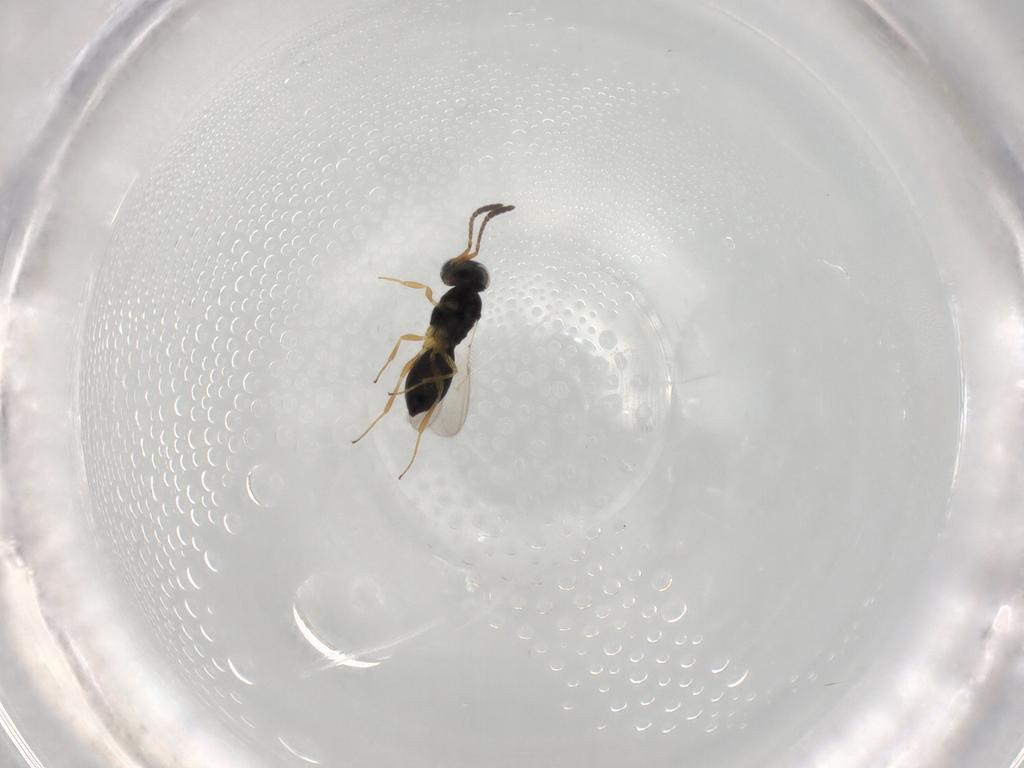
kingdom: Animalia
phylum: Arthropoda
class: Insecta
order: Hymenoptera
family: Scelionidae
